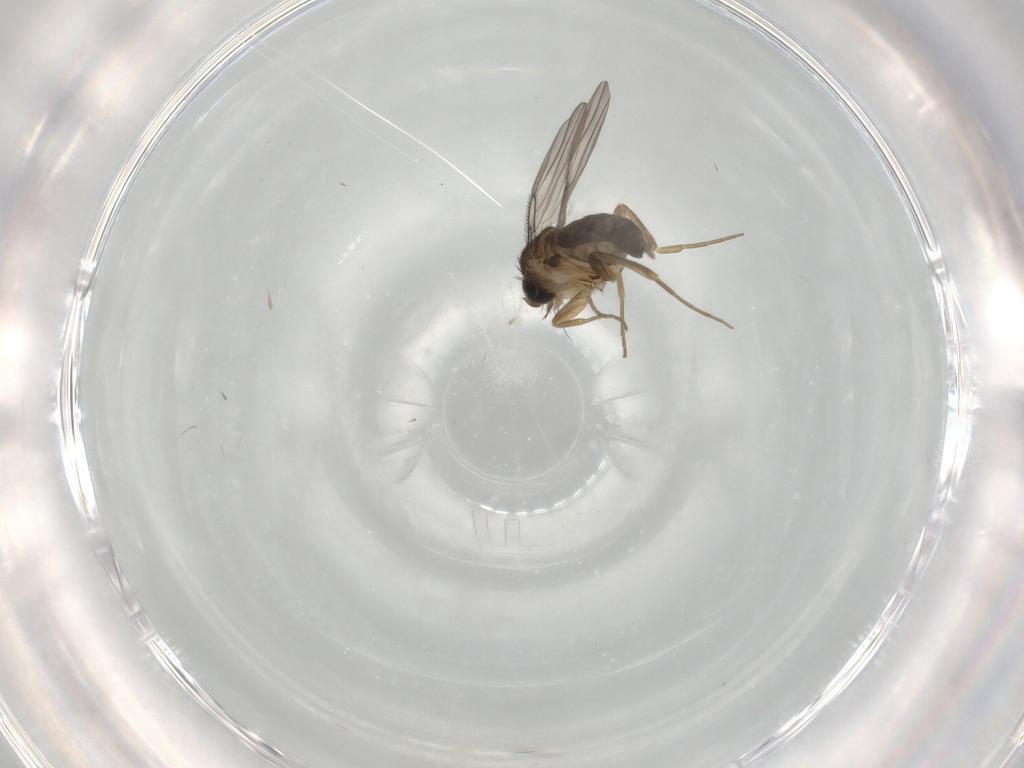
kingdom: Animalia
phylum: Arthropoda
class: Insecta
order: Diptera
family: Phoridae
